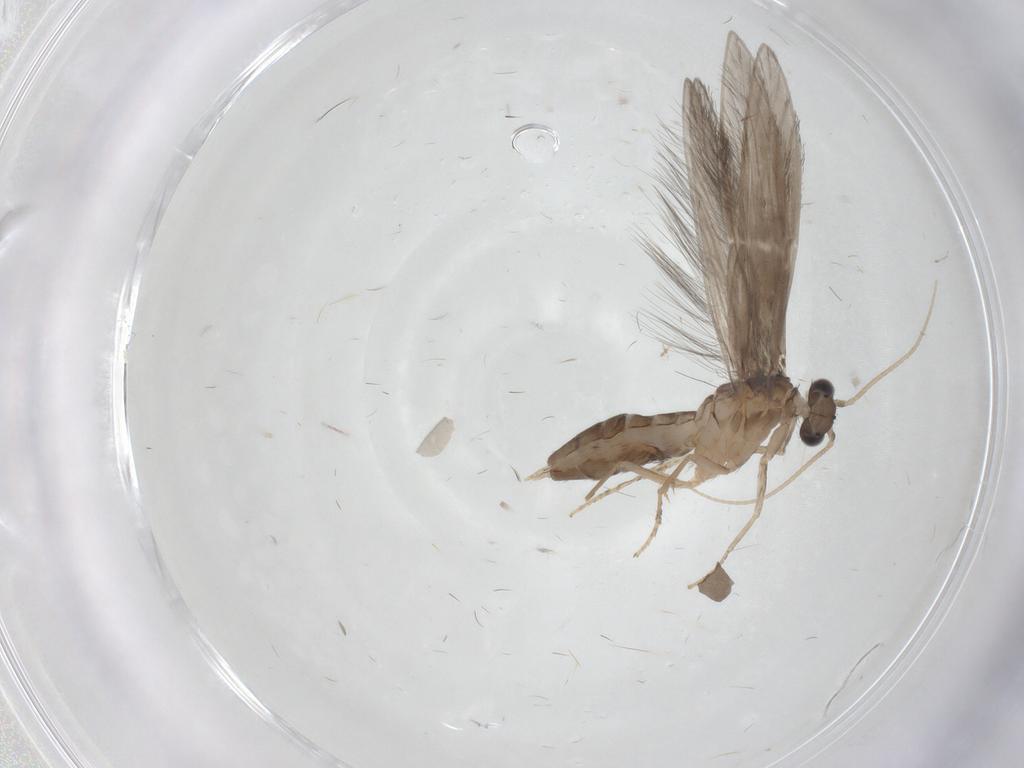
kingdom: Animalia
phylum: Arthropoda
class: Insecta
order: Trichoptera
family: Hydroptilidae
